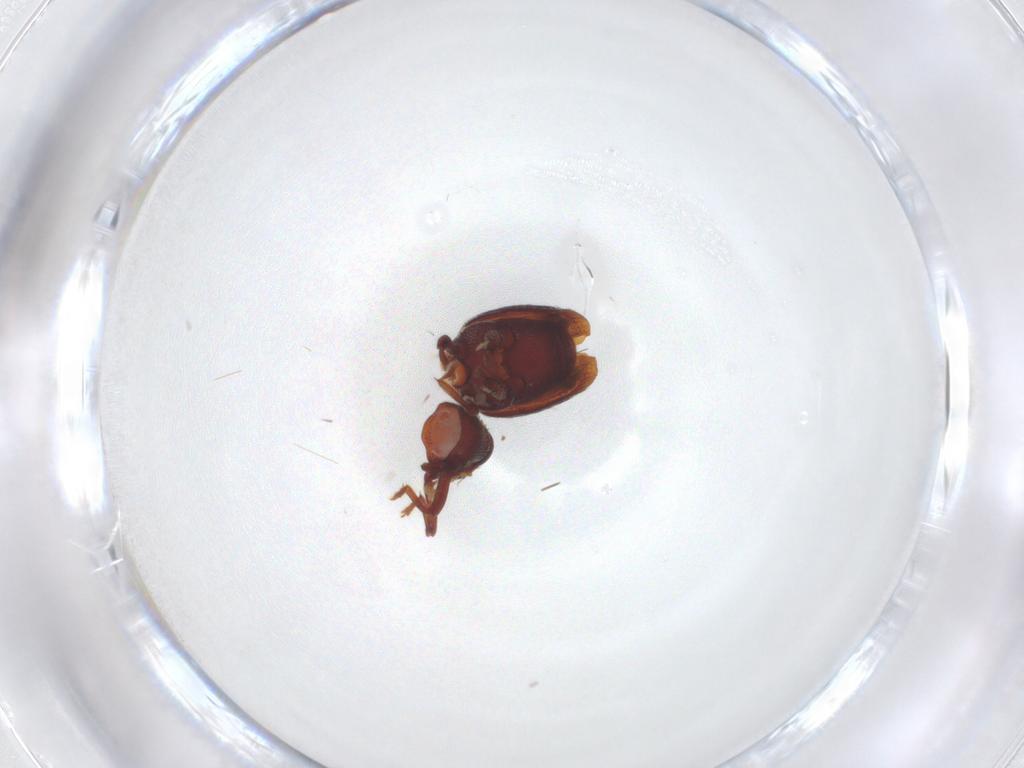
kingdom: Animalia
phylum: Arthropoda
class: Insecta
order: Coleoptera
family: Curculionidae
